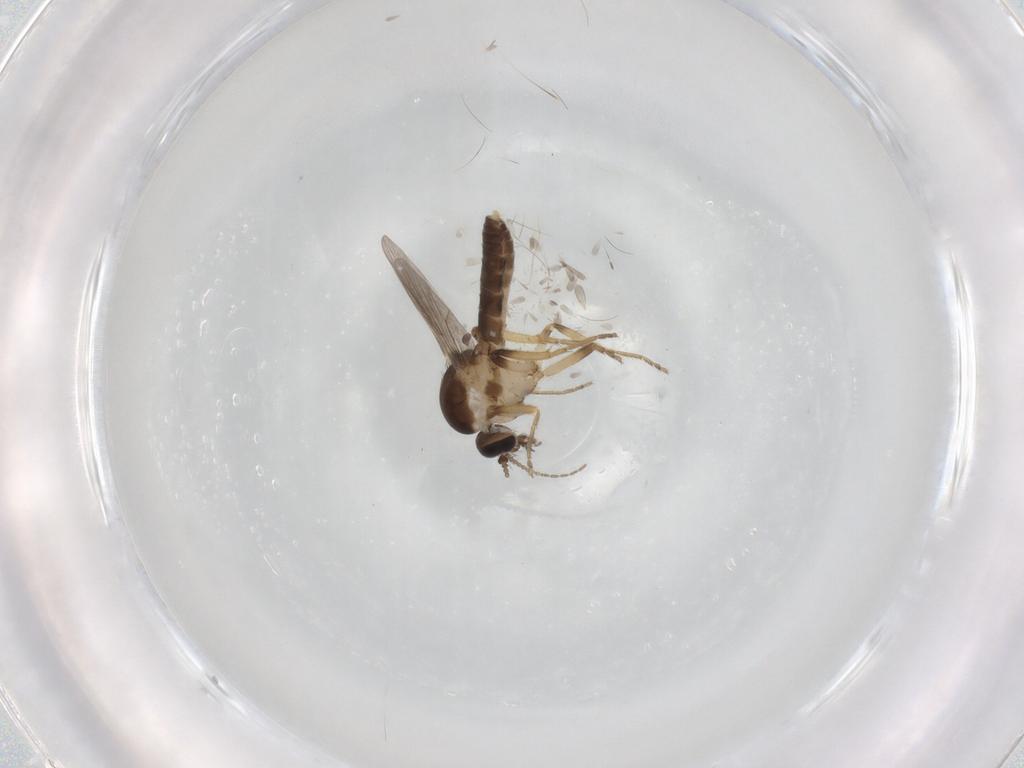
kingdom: Animalia
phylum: Arthropoda
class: Insecta
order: Diptera
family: Ceratopogonidae
